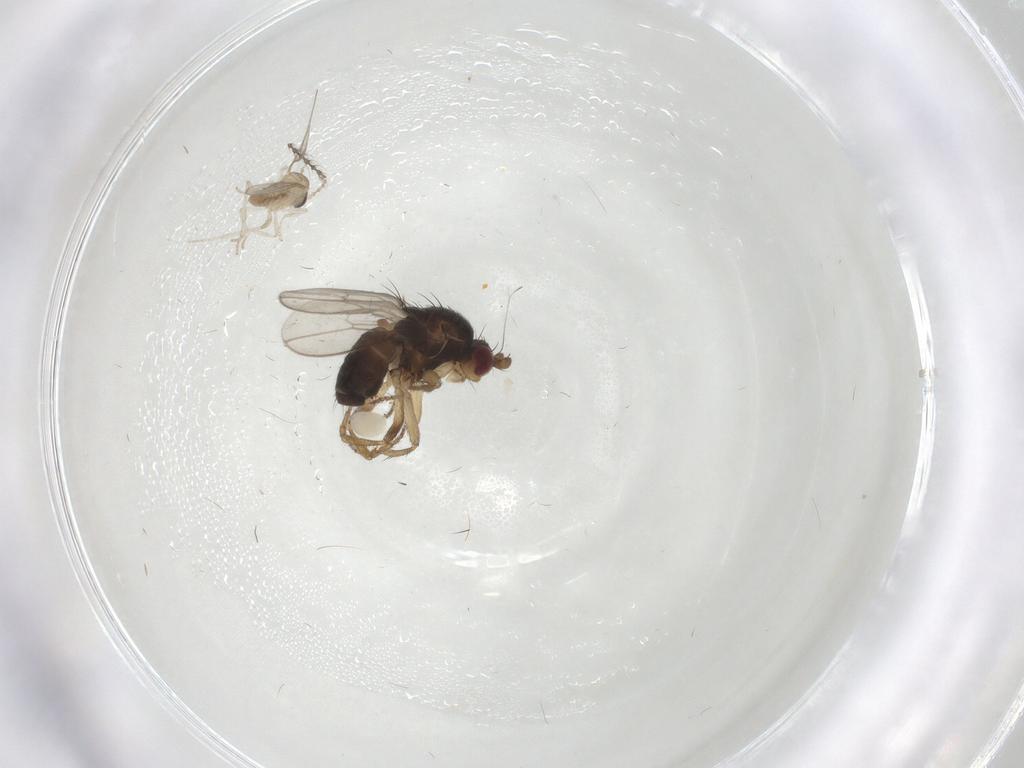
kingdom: Animalia
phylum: Arthropoda
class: Insecta
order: Diptera
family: Sphaeroceridae
